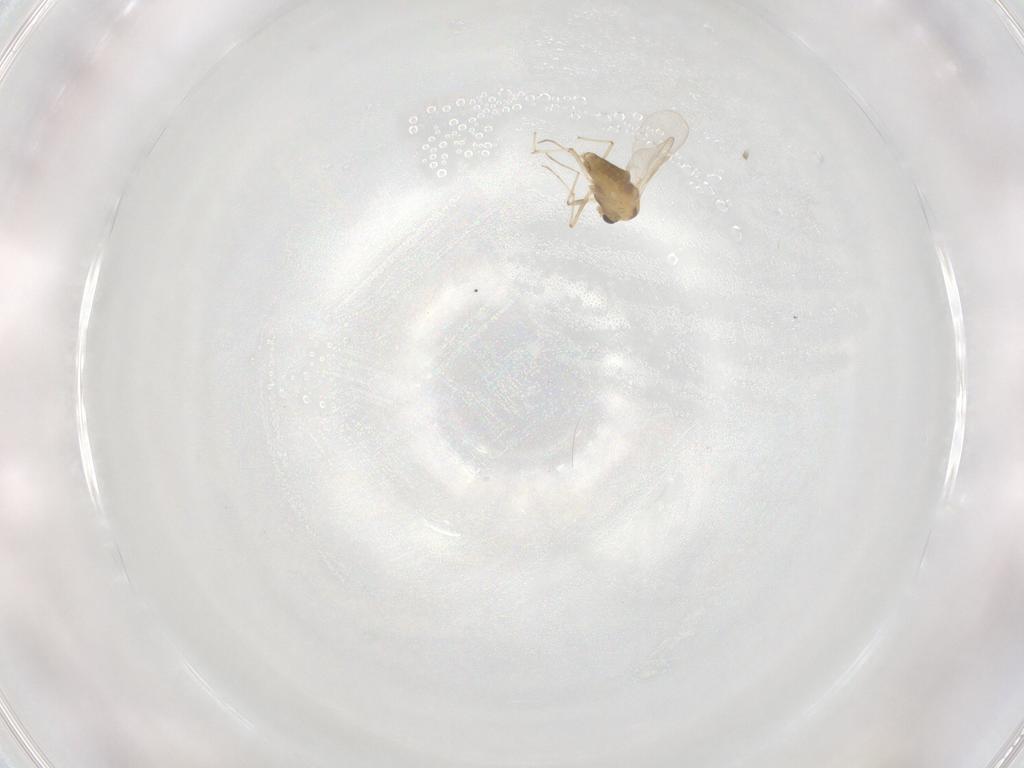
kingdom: Animalia
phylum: Arthropoda
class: Insecta
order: Diptera
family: Chironomidae
